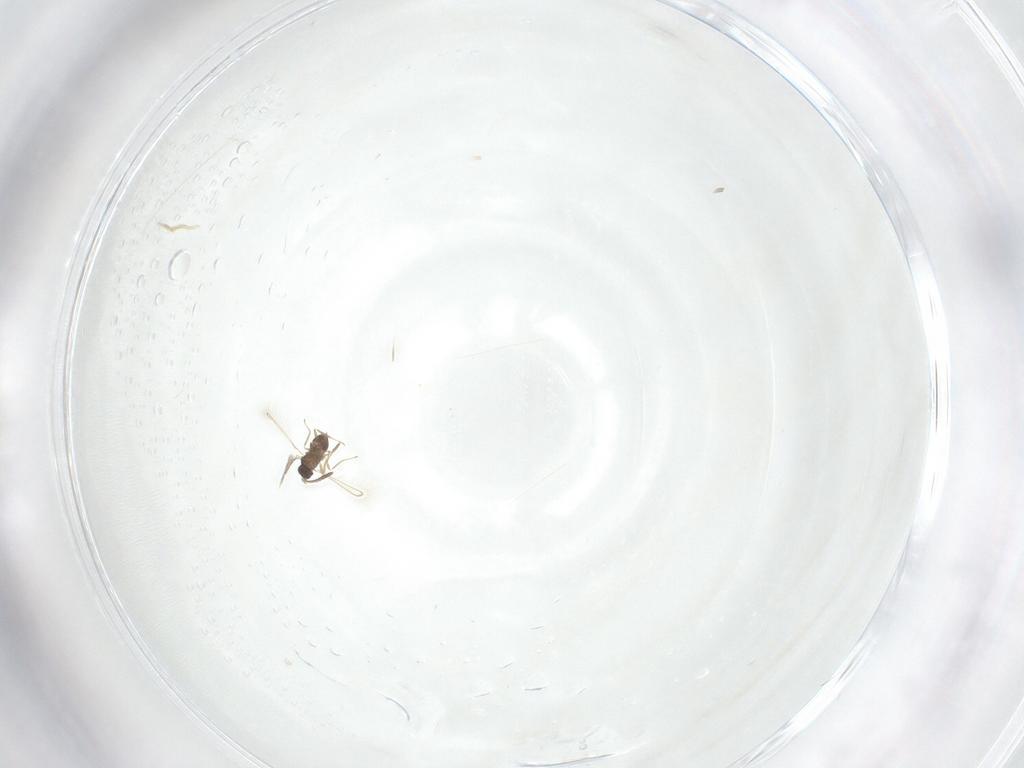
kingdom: Animalia
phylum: Arthropoda
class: Insecta
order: Hymenoptera
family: Mymaridae
